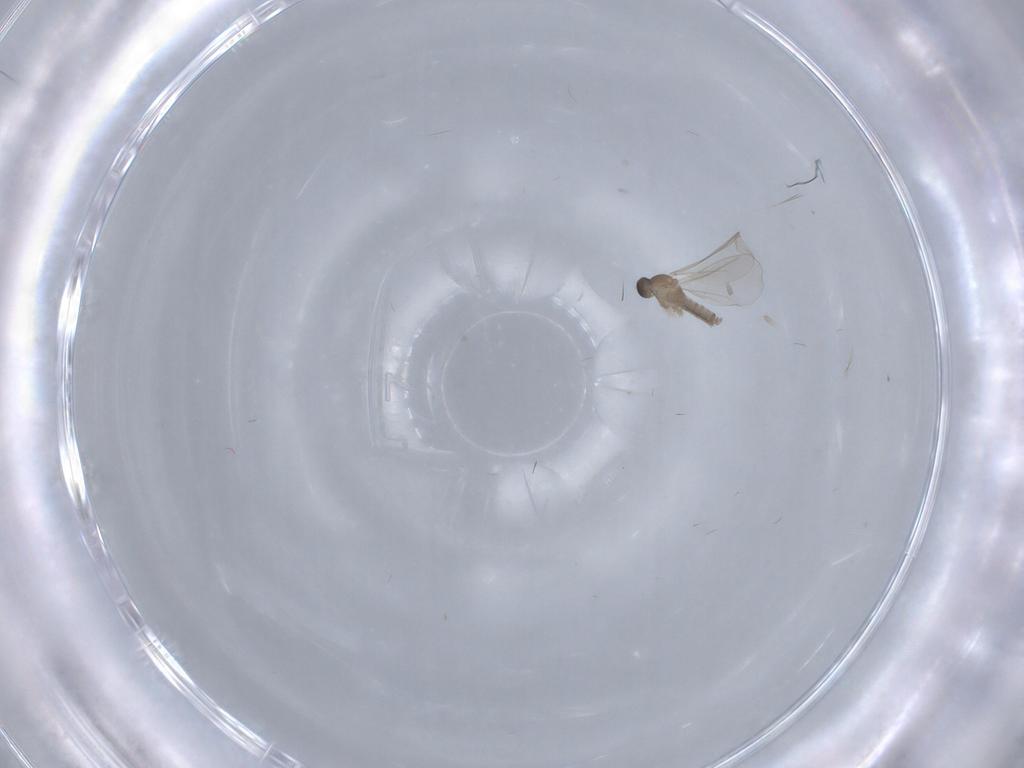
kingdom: Animalia
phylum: Arthropoda
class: Insecta
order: Diptera
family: Cecidomyiidae
